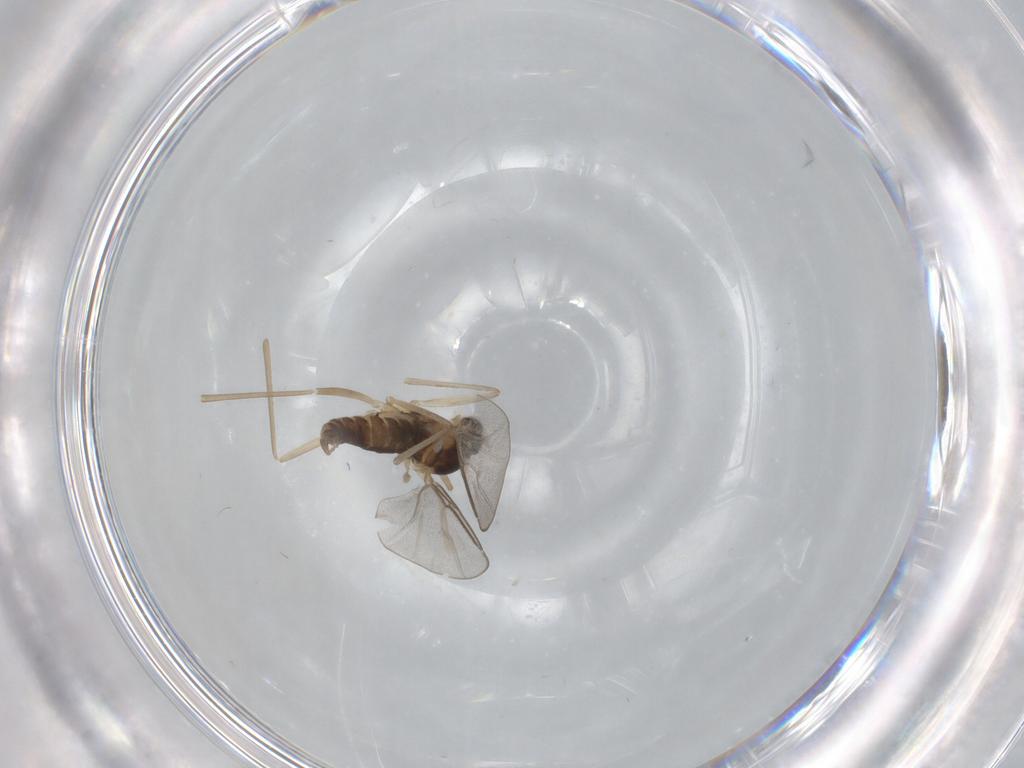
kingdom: Animalia
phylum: Arthropoda
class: Insecta
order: Diptera
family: Cecidomyiidae
